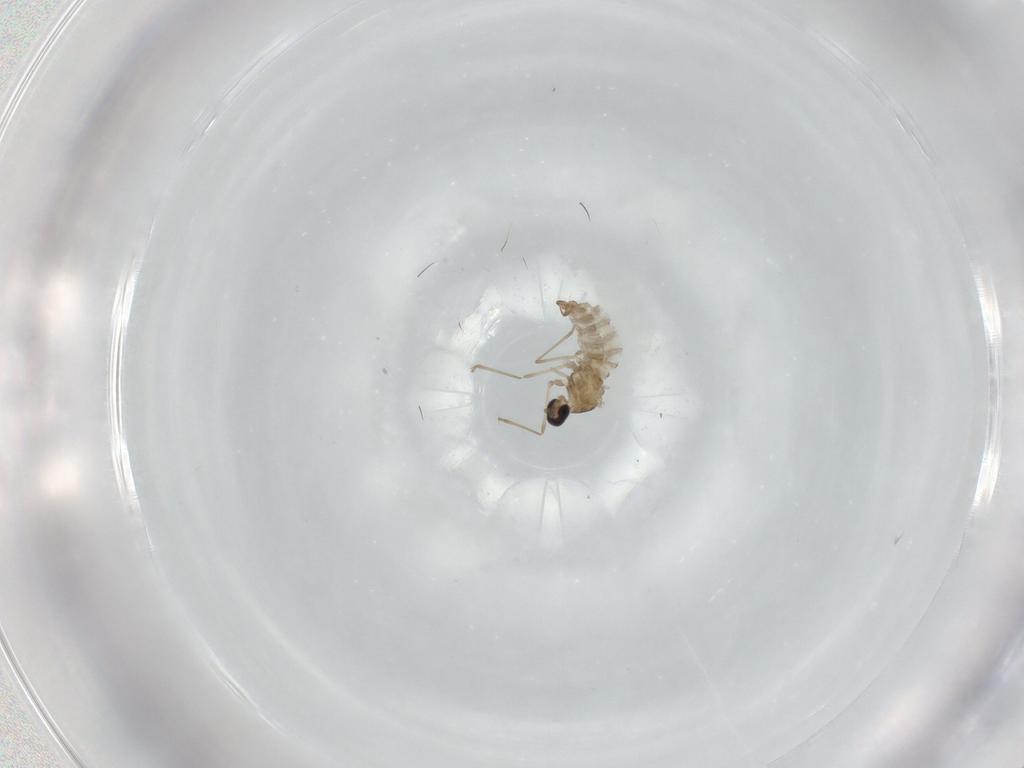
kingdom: Animalia
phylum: Arthropoda
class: Insecta
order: Diptera
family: Cecidomyiidae
